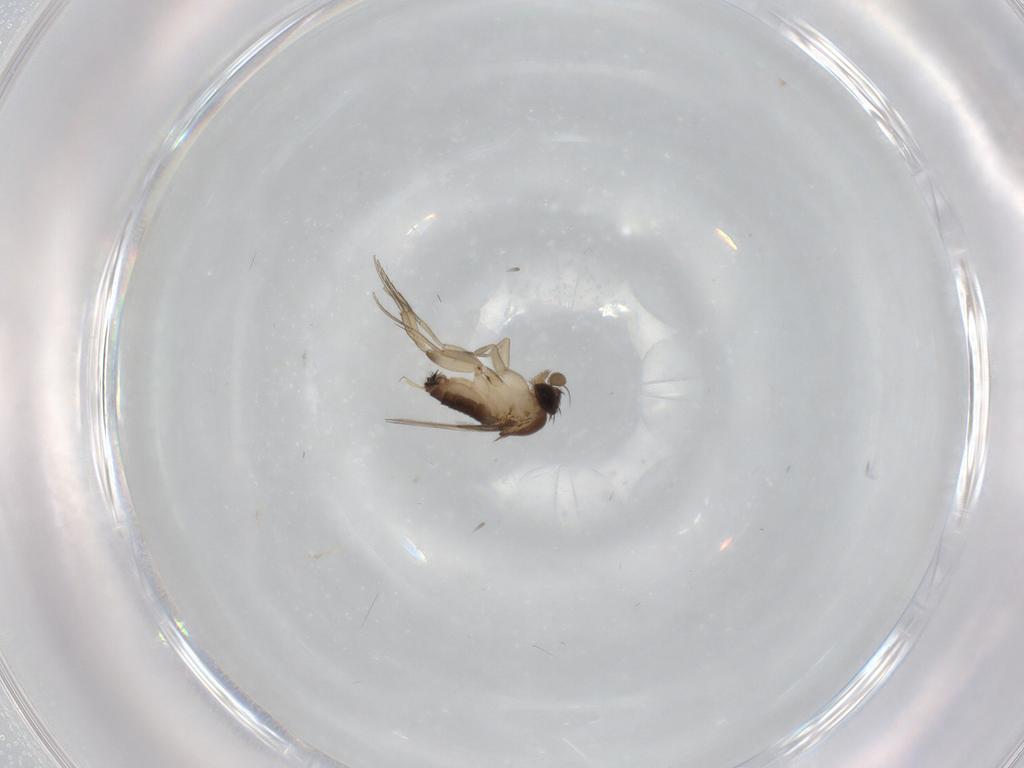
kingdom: Animalia
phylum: Arthropoda
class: Insecta
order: Diptera
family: Phoridae
